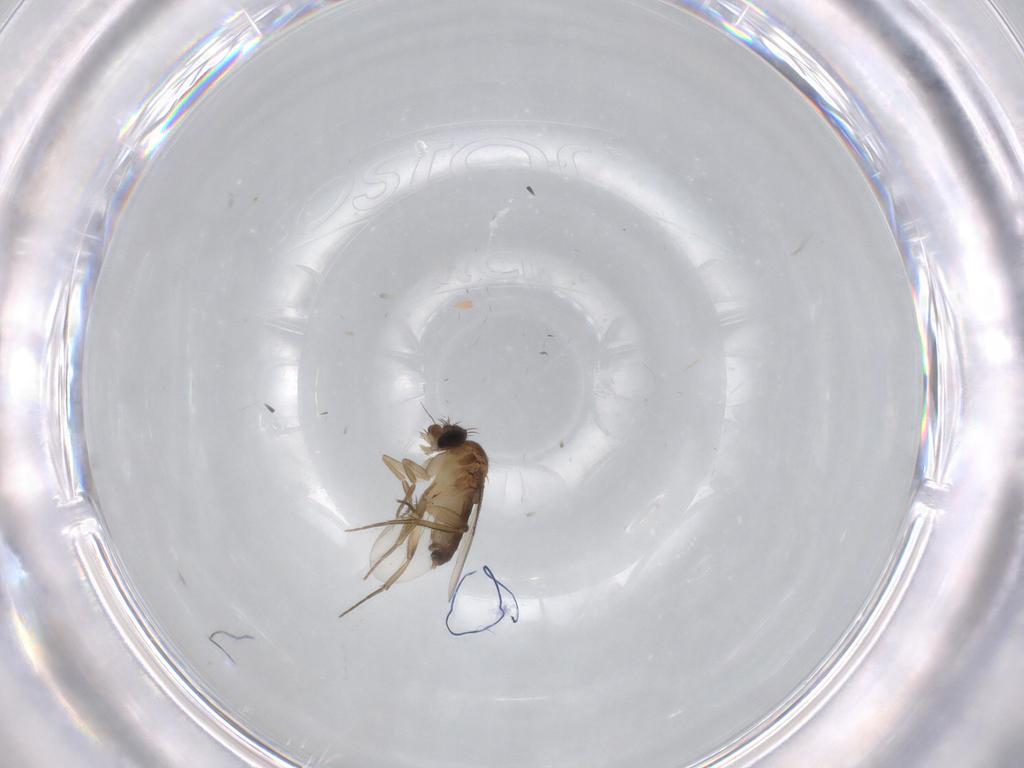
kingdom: Animalia
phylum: Arthropoda
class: Insecta
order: Diptera
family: Phoridae
